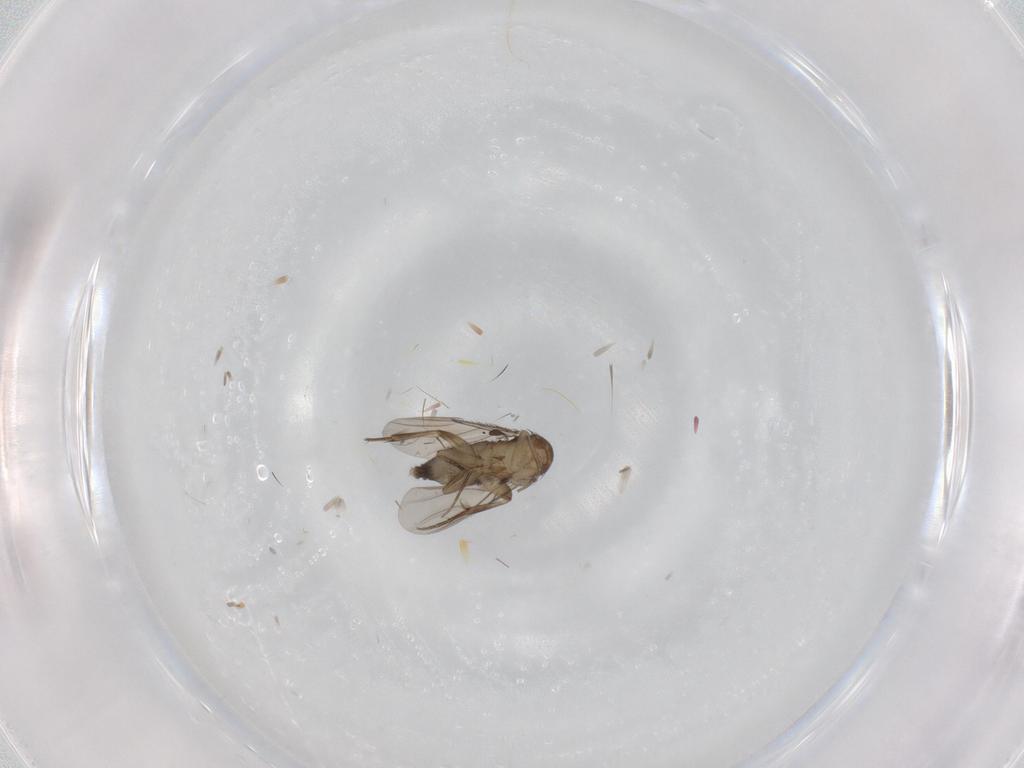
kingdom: Animalia
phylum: Arthropoda
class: Insecta
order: Diptera
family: Phoridae
